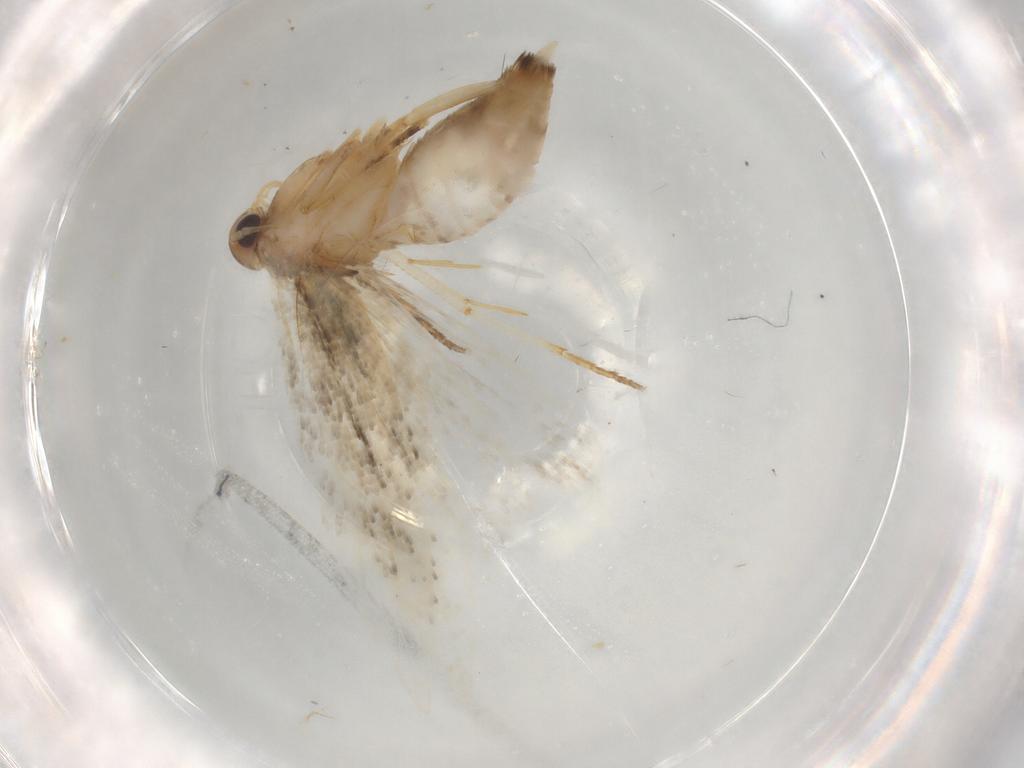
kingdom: Animalia
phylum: Arthropoda
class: Insecta
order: Lepidoptera
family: Gelechiidae
